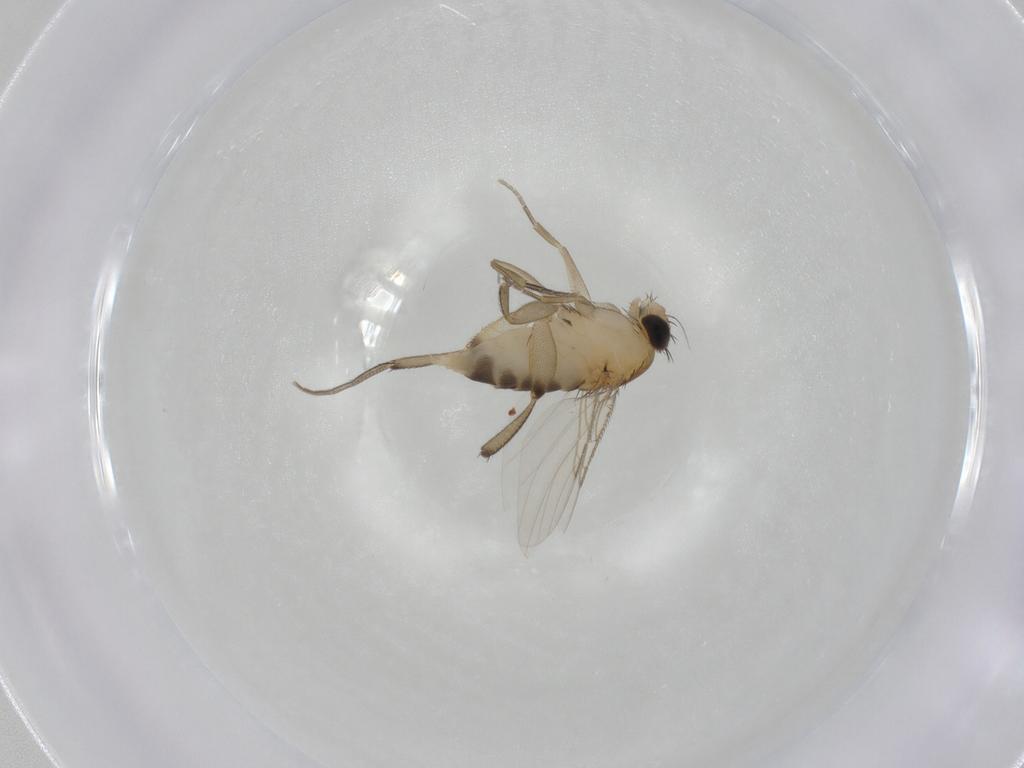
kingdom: Animalia
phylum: Arthropoda
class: Insecta
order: Diptera
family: Phoridae
